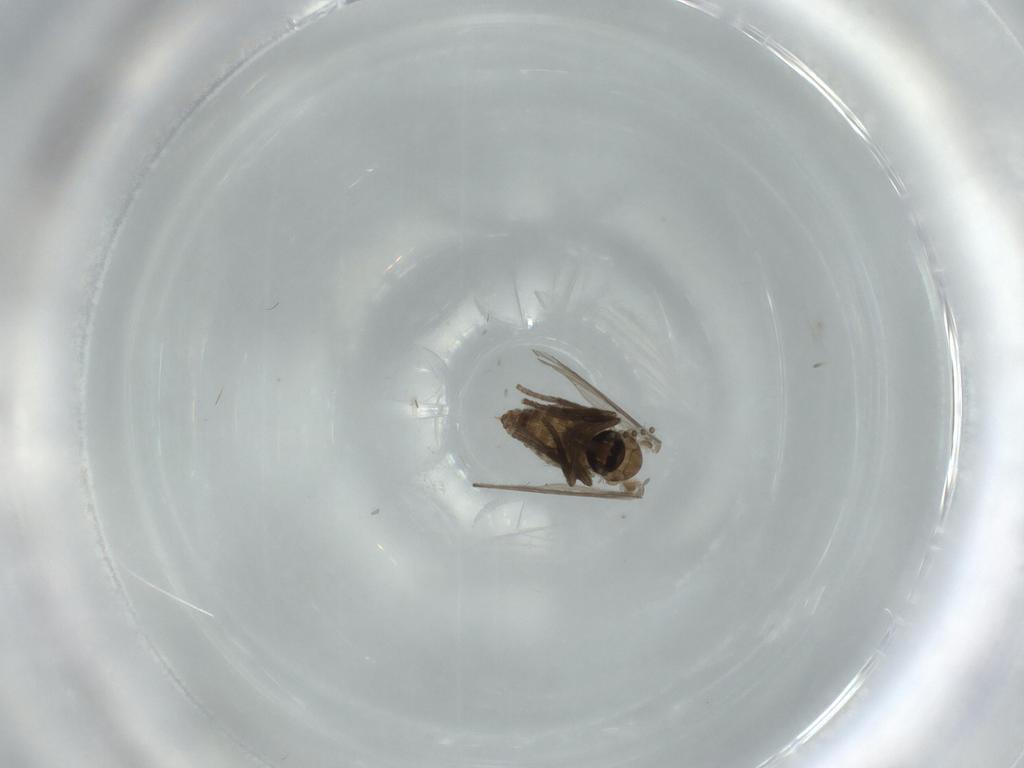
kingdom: Animalia
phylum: Arthropoda
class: Insecta
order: Diptera
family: Psychodidae
